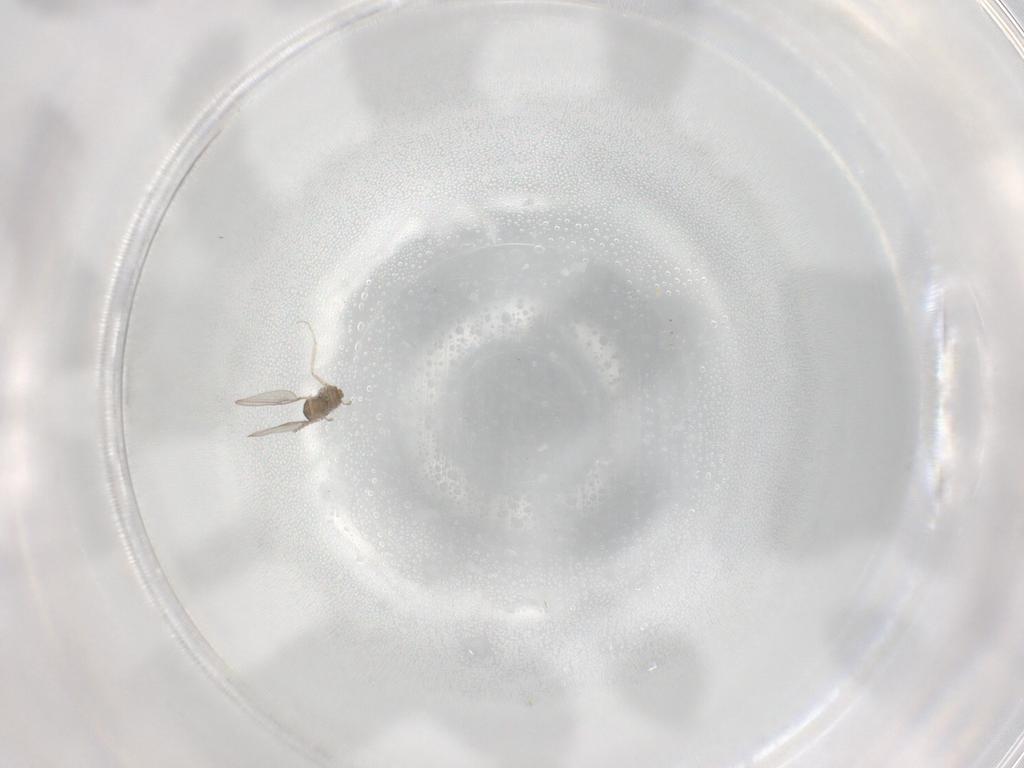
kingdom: Animalia
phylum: Arthropoda
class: Insecta
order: Diptera
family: Cecidomyiidae
